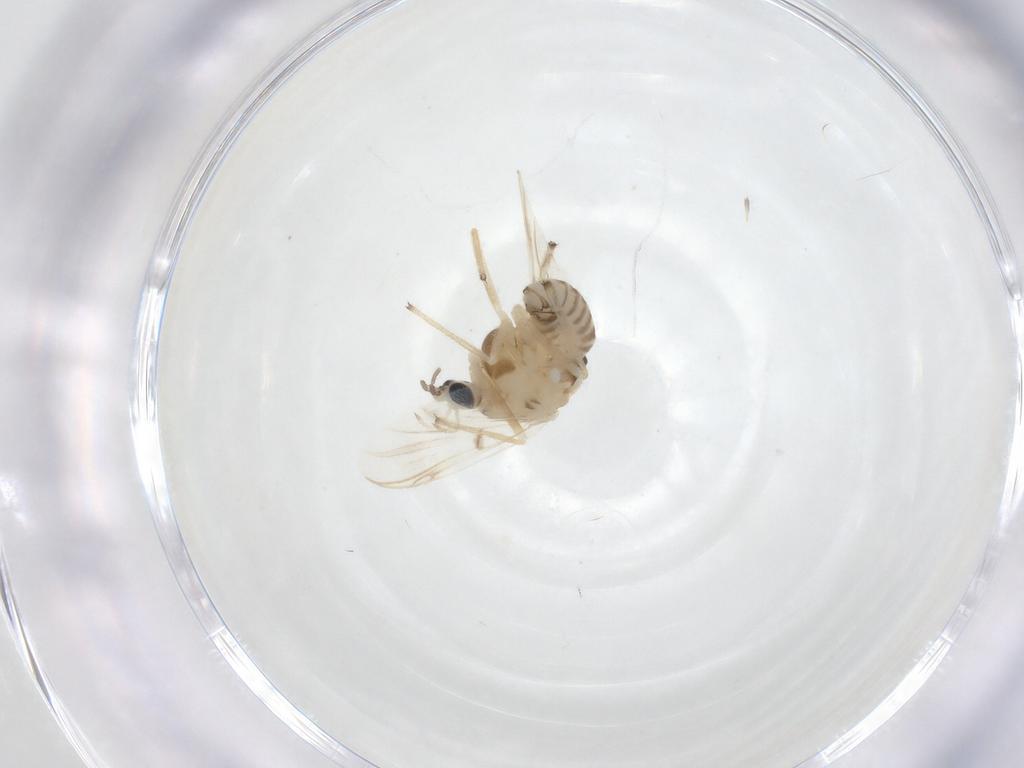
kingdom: Animalia
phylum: Arthropoda
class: Insecta
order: Diptera
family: Chironomidae
